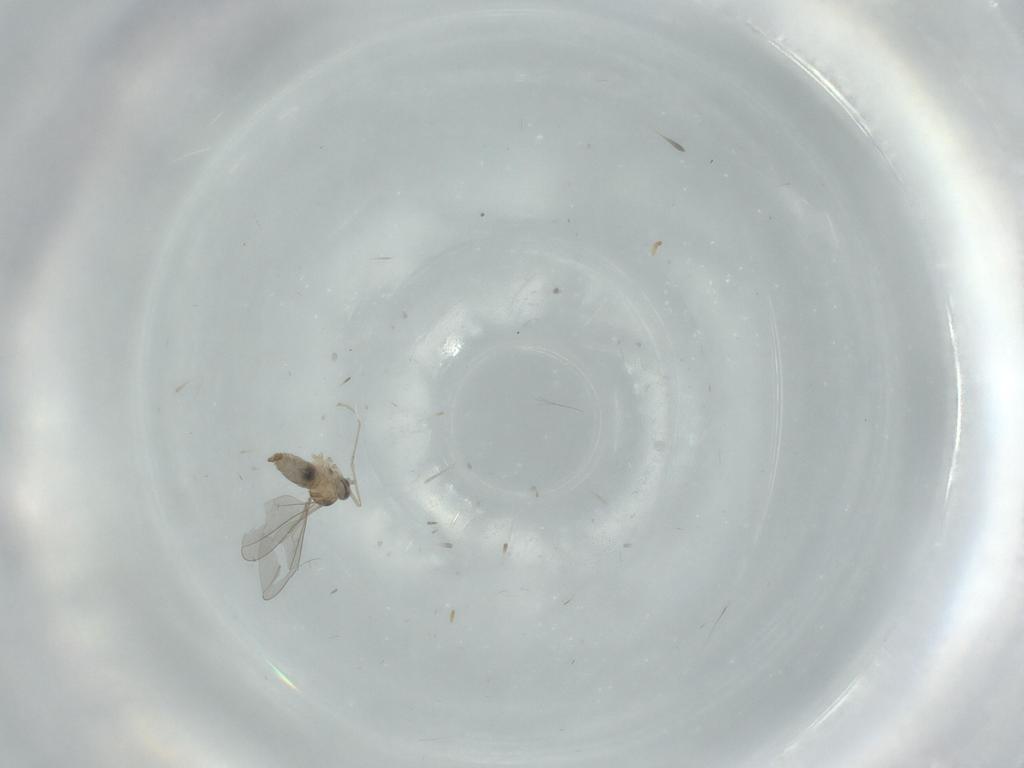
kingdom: Animalia
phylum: Arthropoda
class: Insecta
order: Diptera
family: Cecidomyiidae
